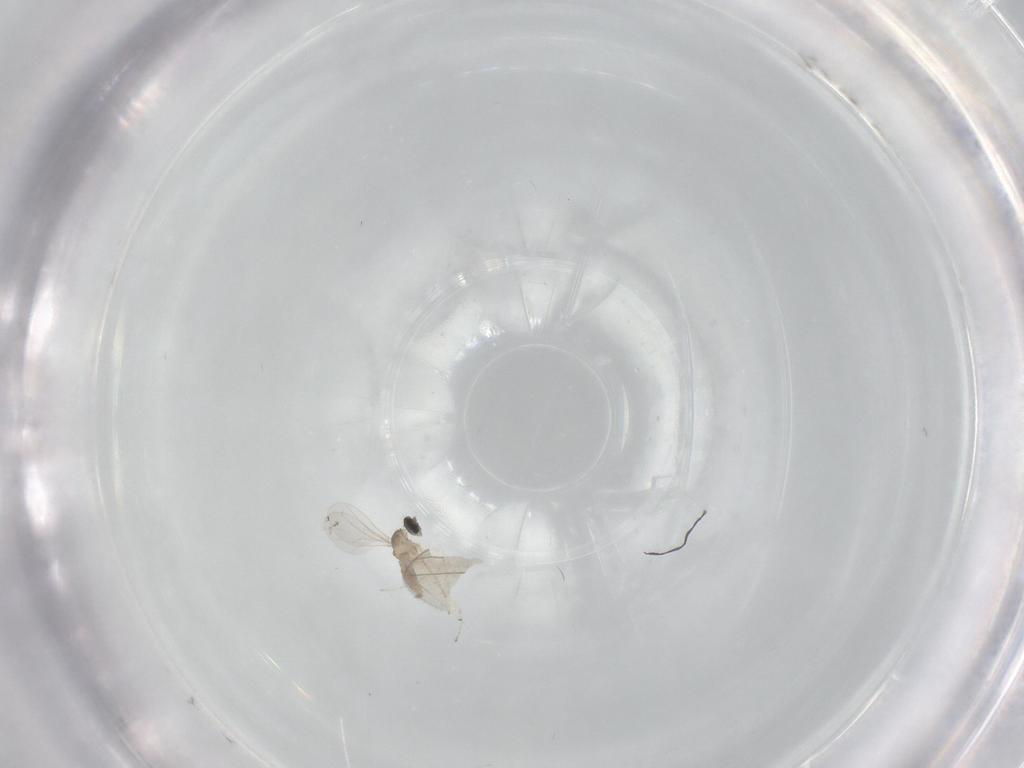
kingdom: Animalia
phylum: Arthropoda
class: Insecta
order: Diptera
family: Cecidomyiidae
